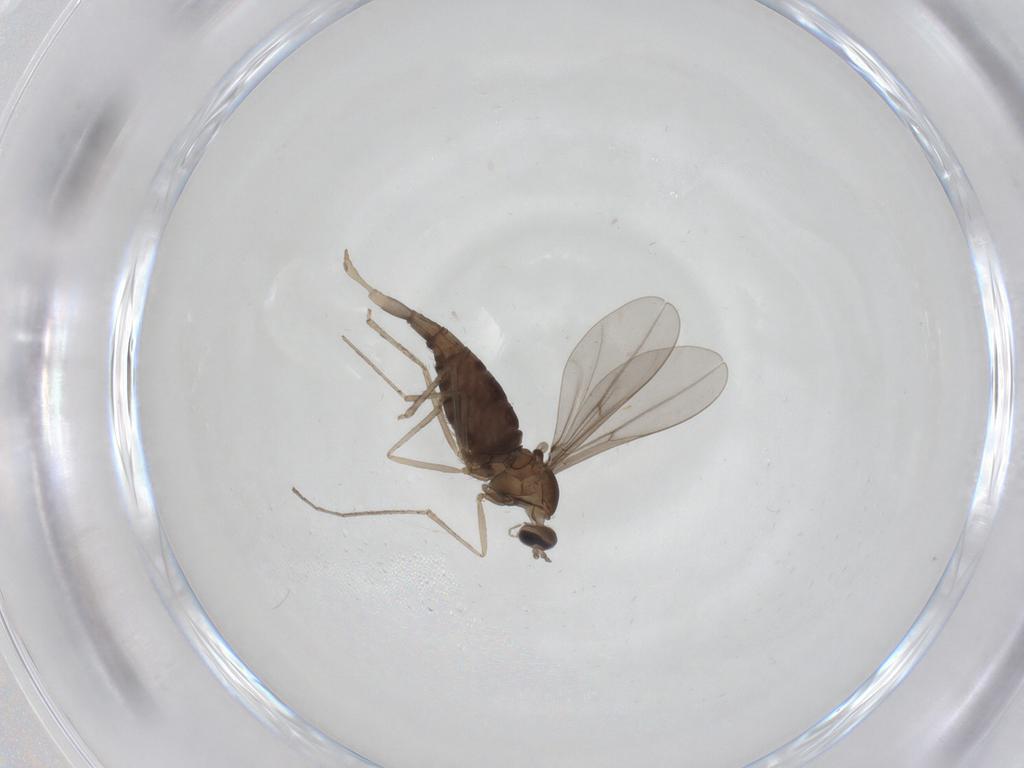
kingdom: Animalia
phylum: Arthropoda
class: Insecta
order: Diptera
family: Cecidomyiidae
